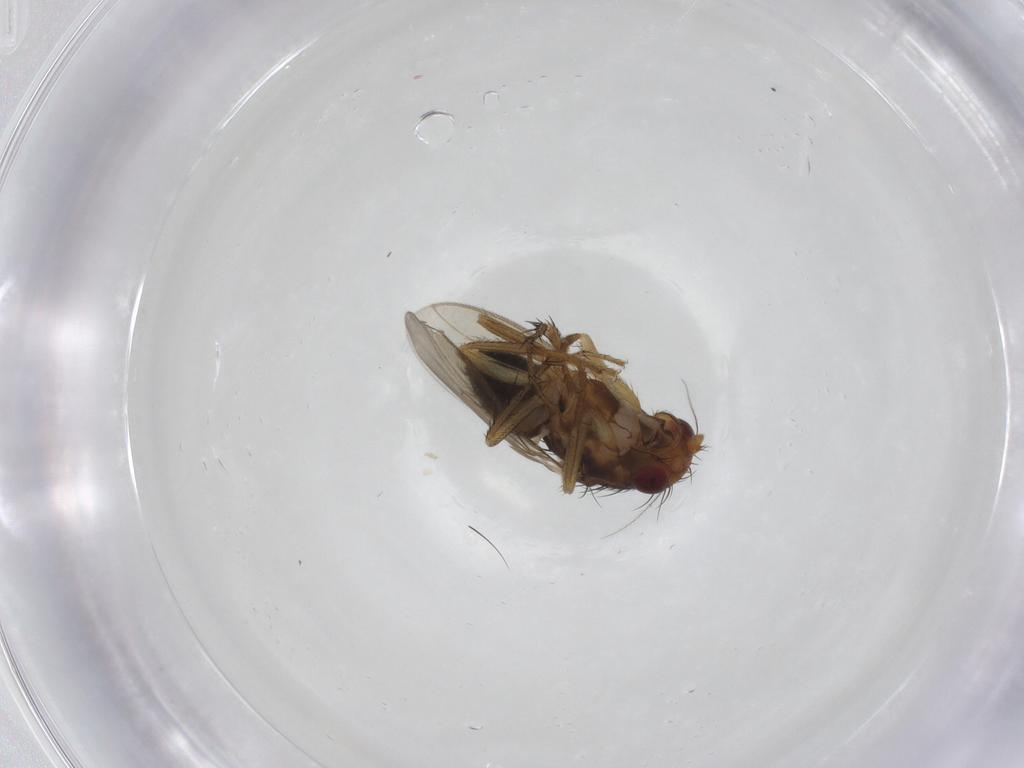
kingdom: Animalia
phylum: Arthropoda
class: Insecta
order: Diptera
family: Sphaeroceridae
